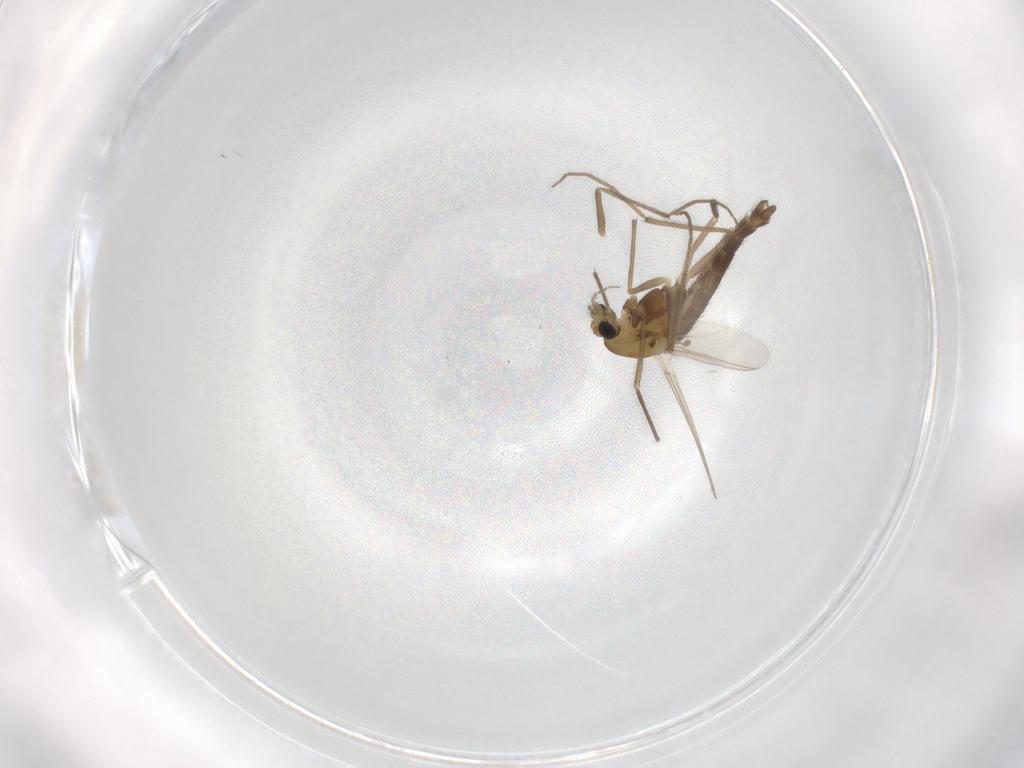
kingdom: Animalia
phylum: Arthropoda
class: Insecta
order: Diptera
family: Chironomidae
